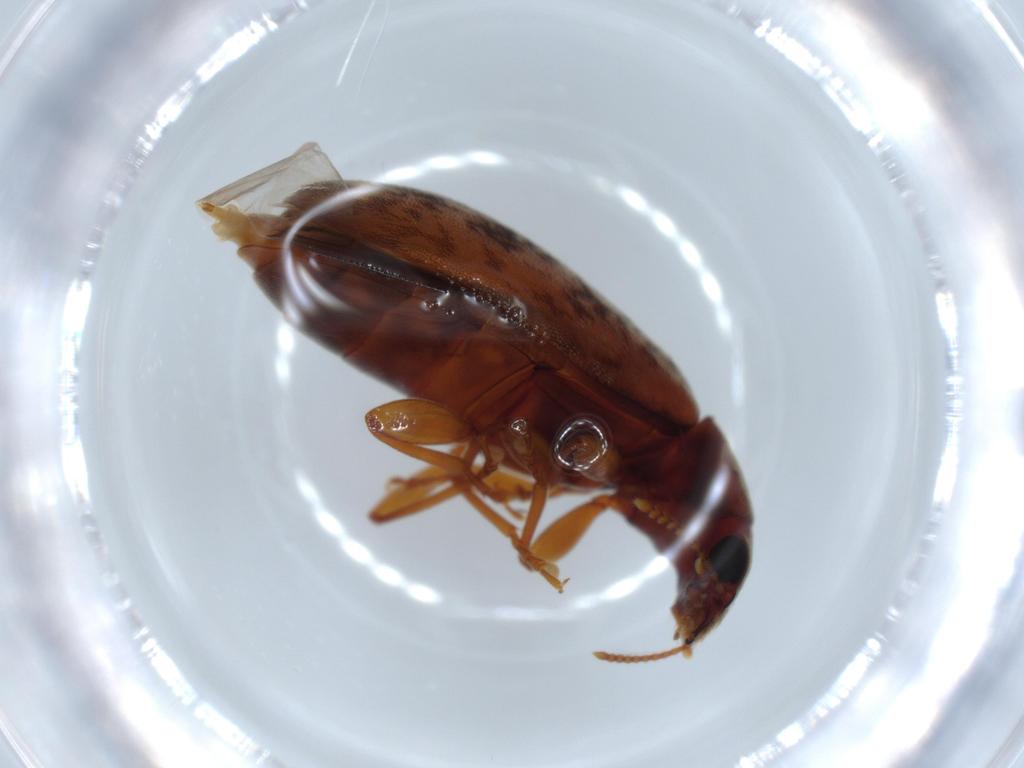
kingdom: Animalia
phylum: Arthropoda
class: Insecta
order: Coleoptera
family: Mycteridae
